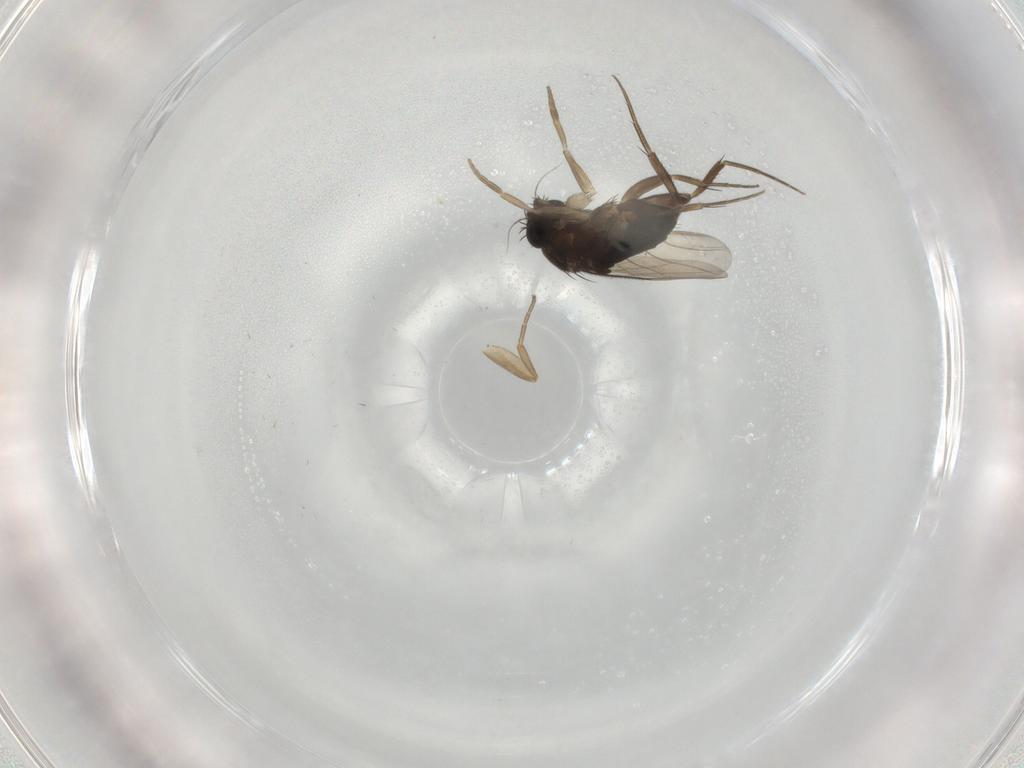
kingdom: Animalia
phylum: Arthropoda
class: Insecta
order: Diptera
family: Phoridae
